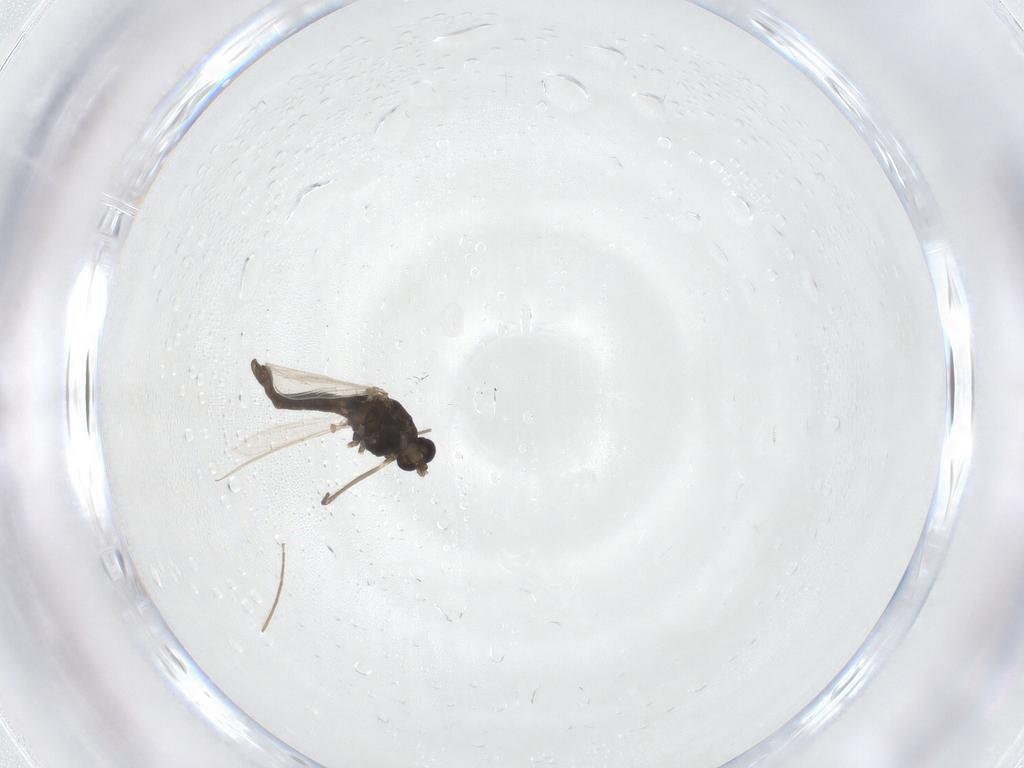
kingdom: Animalia
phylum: Arthropoda
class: Insecta
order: Diptera
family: Chironomidae
